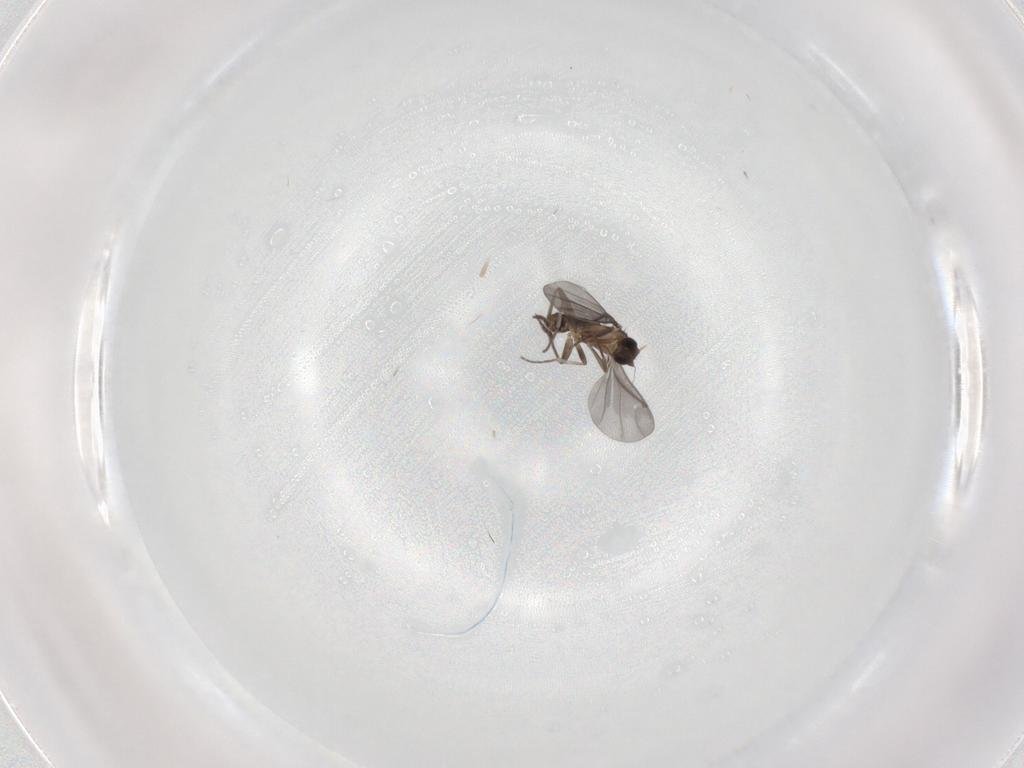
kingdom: Animalia
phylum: Arthropoda
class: Insecta
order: Diptera
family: Phoridae
